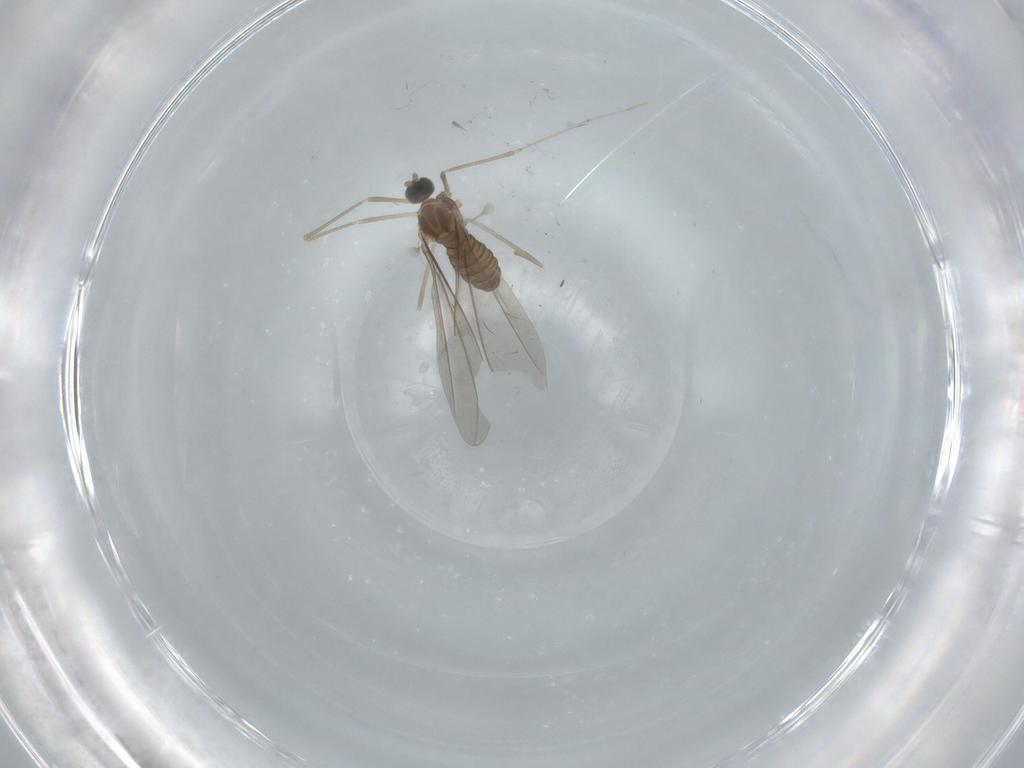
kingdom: Animalia
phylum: Arthropoda
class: Insecta
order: Diptera
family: Cecidomyiidae
